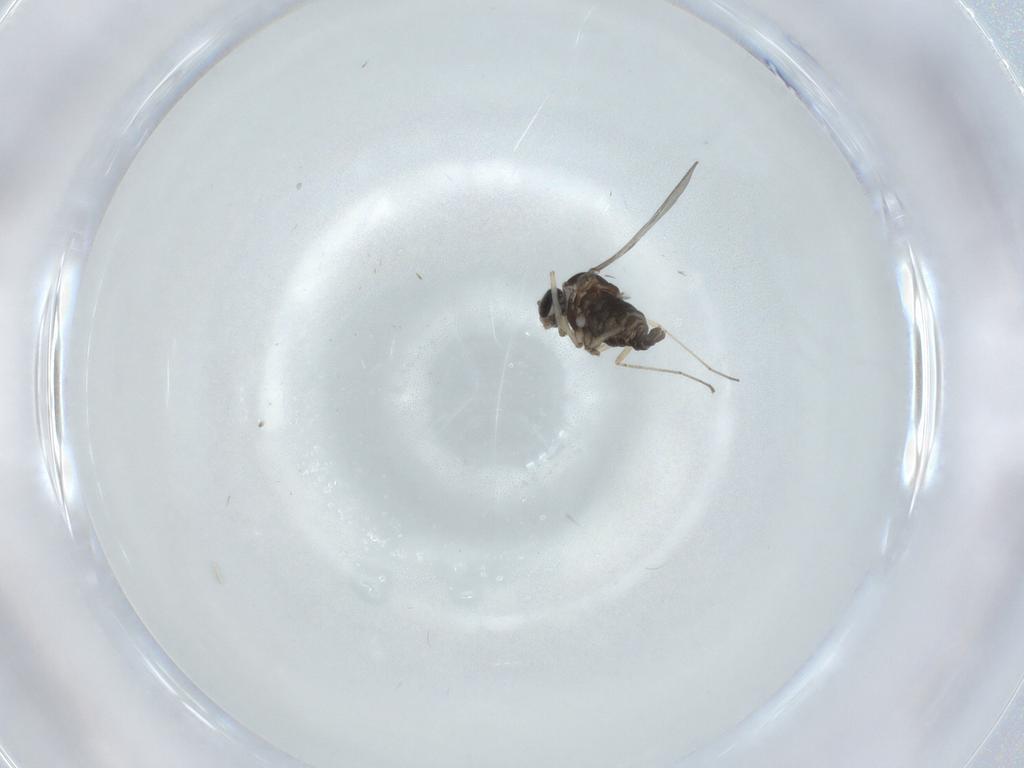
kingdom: Animalia
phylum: Arthropoda
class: Insecta
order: Diptera
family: Cecidomyiidae
